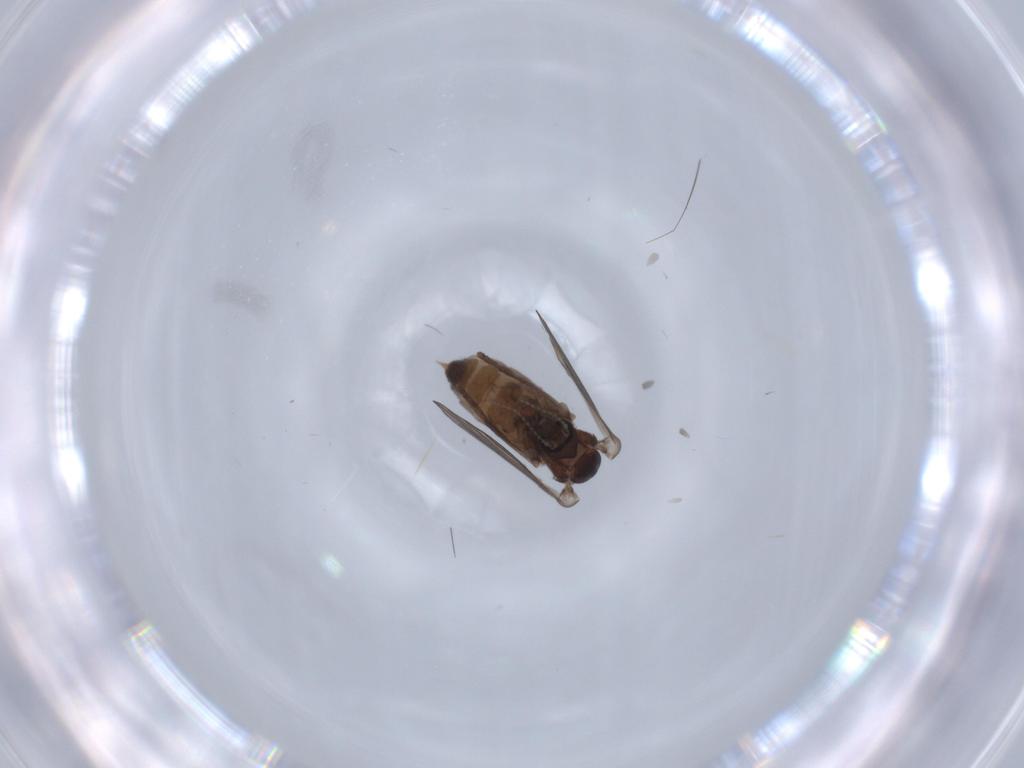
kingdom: Animalia
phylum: Arthropoda
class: Insecta
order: Diptera
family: Psychodidae
